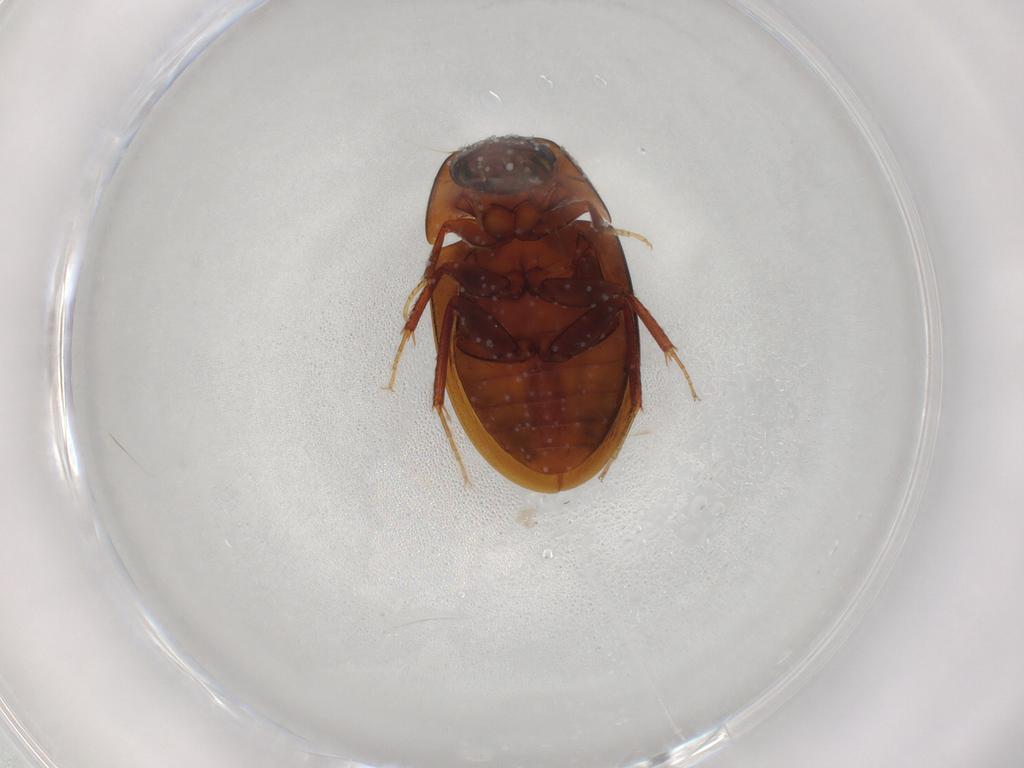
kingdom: Animalia
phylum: Arthropoda
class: Insecta
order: Coleoptera
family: Hydrophilidae
